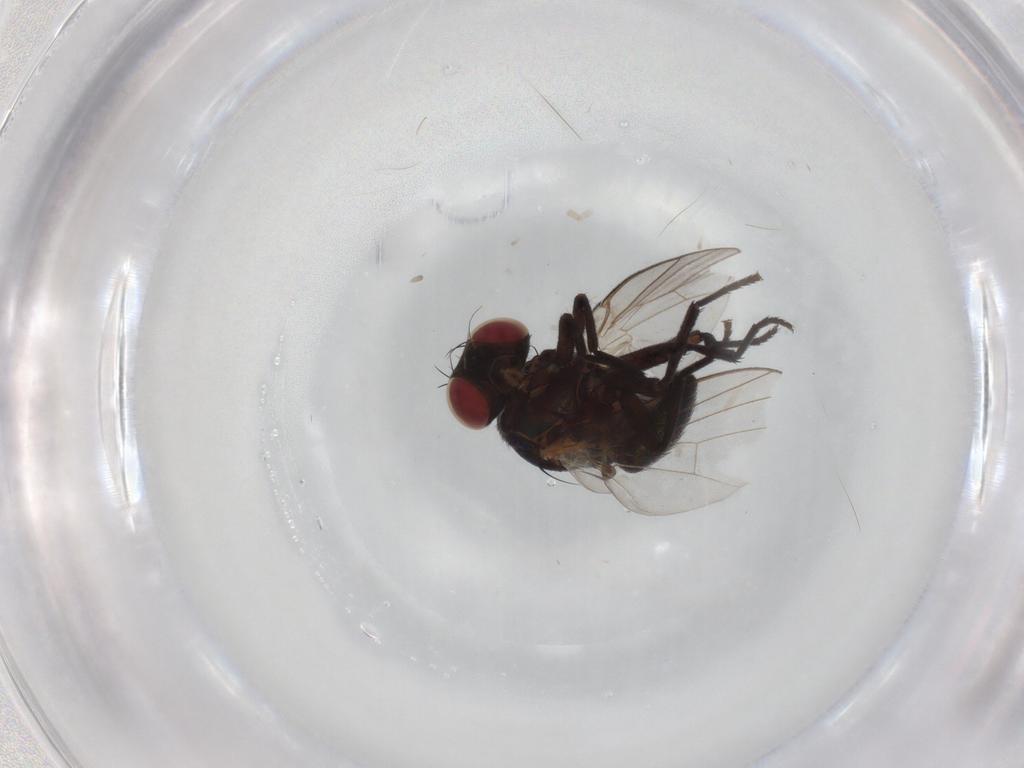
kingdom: Animalia
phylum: Arthropoda
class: Insecta
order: Diptera
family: Agromyzidae
